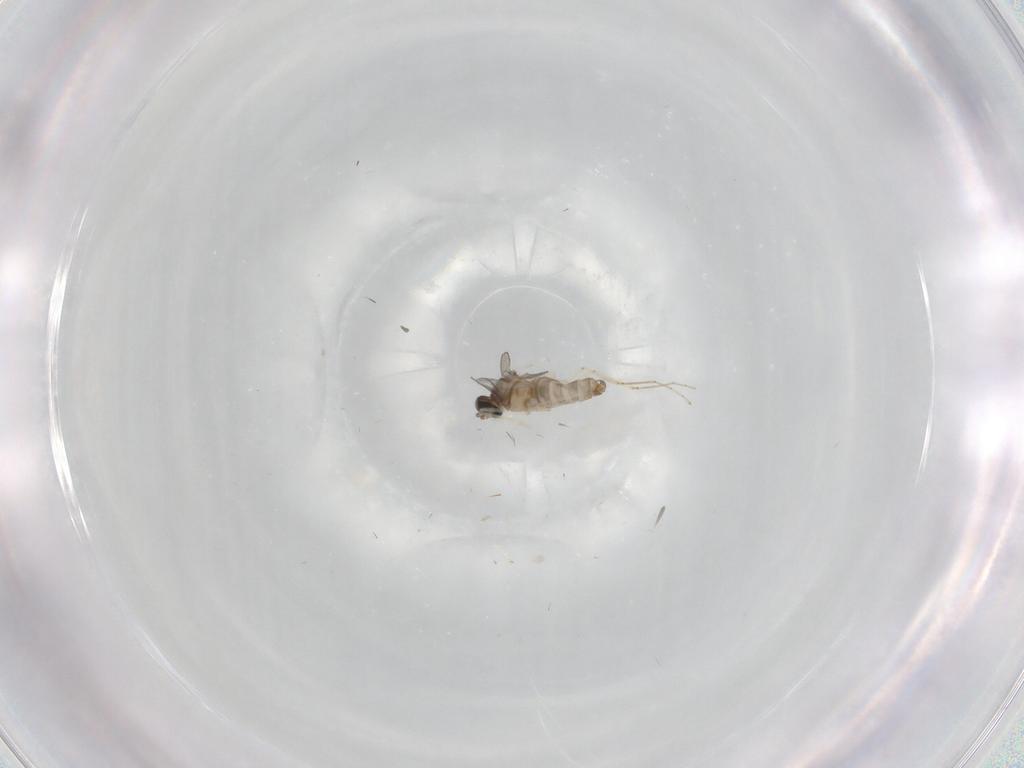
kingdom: Animalia
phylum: Arthropoda
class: Insecta
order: Diptera
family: Cecidomyiidae
